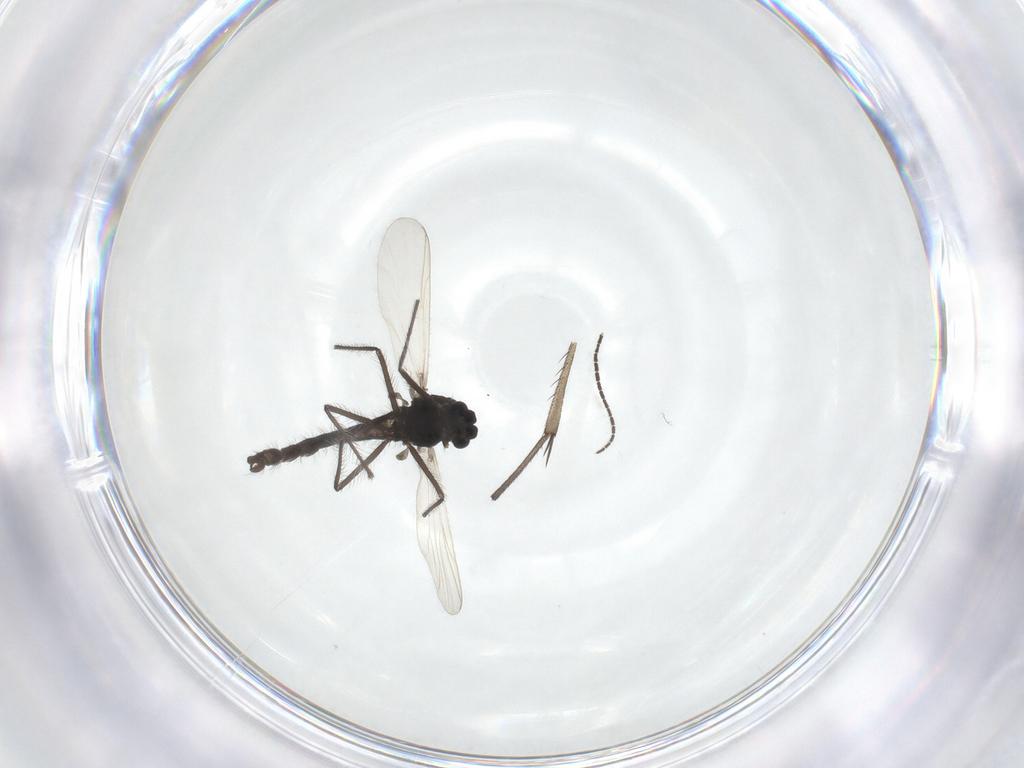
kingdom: Animalia
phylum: Arthropoda
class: Insecta
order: Diptera
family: Chironomidae
